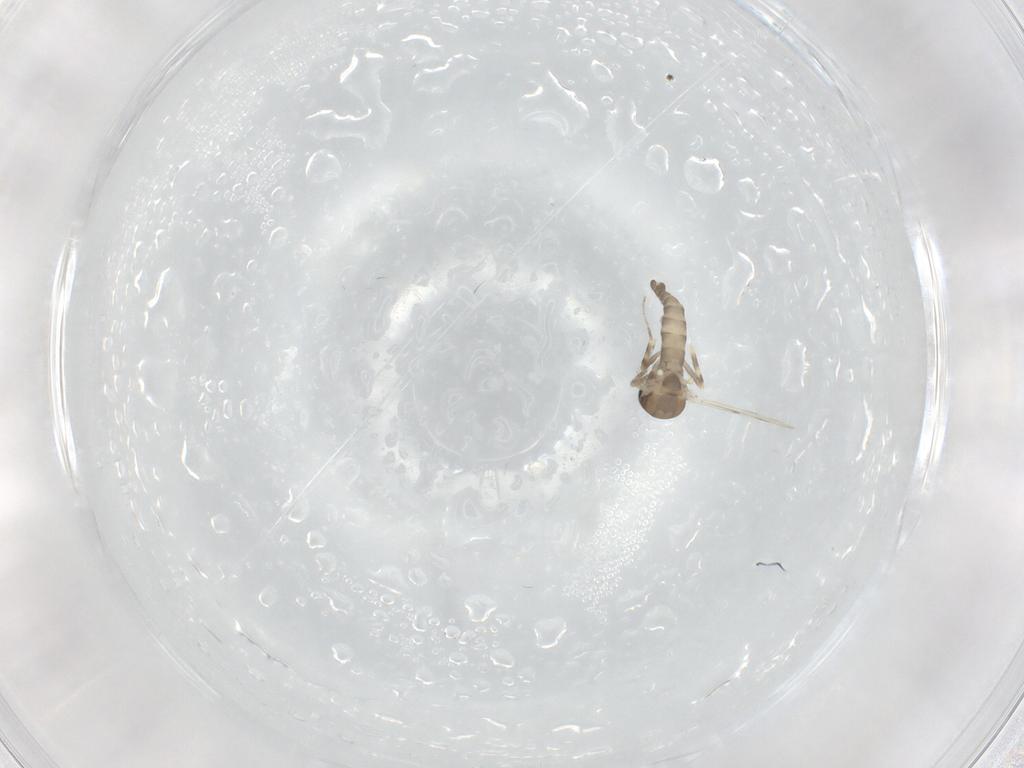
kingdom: Animalia
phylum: Arthropoda
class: Insecta
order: Diptera
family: Ceratopogonidae
